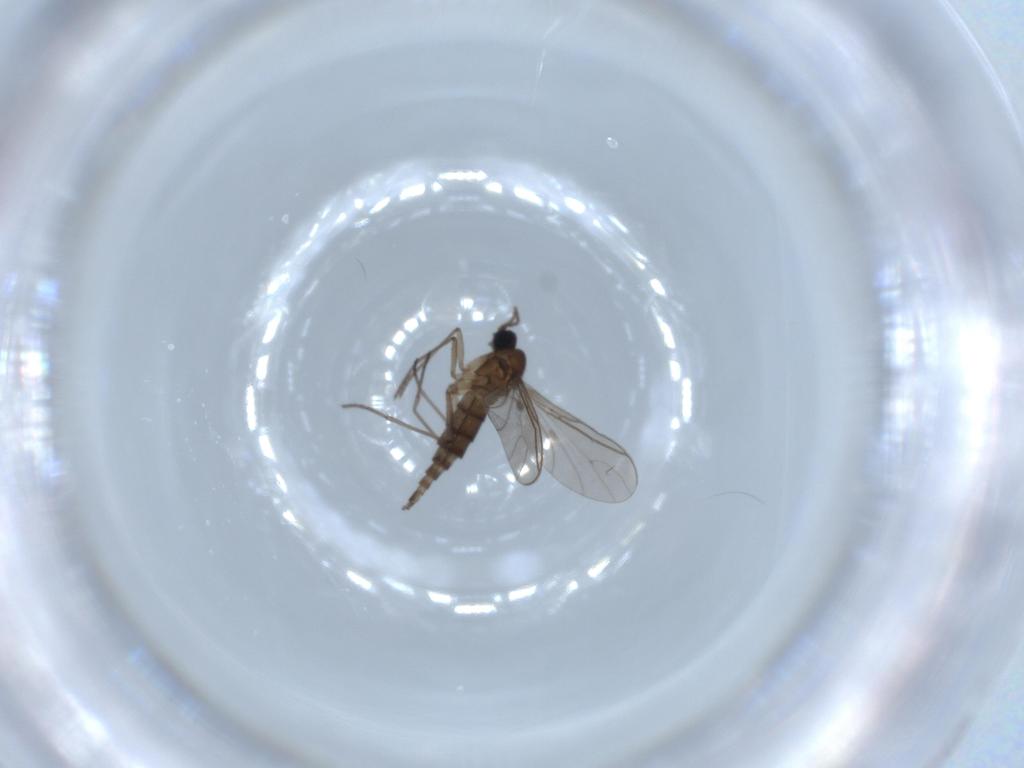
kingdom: Animalia
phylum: Arthropoda
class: Insecta
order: Diptera
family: Sciaridae
